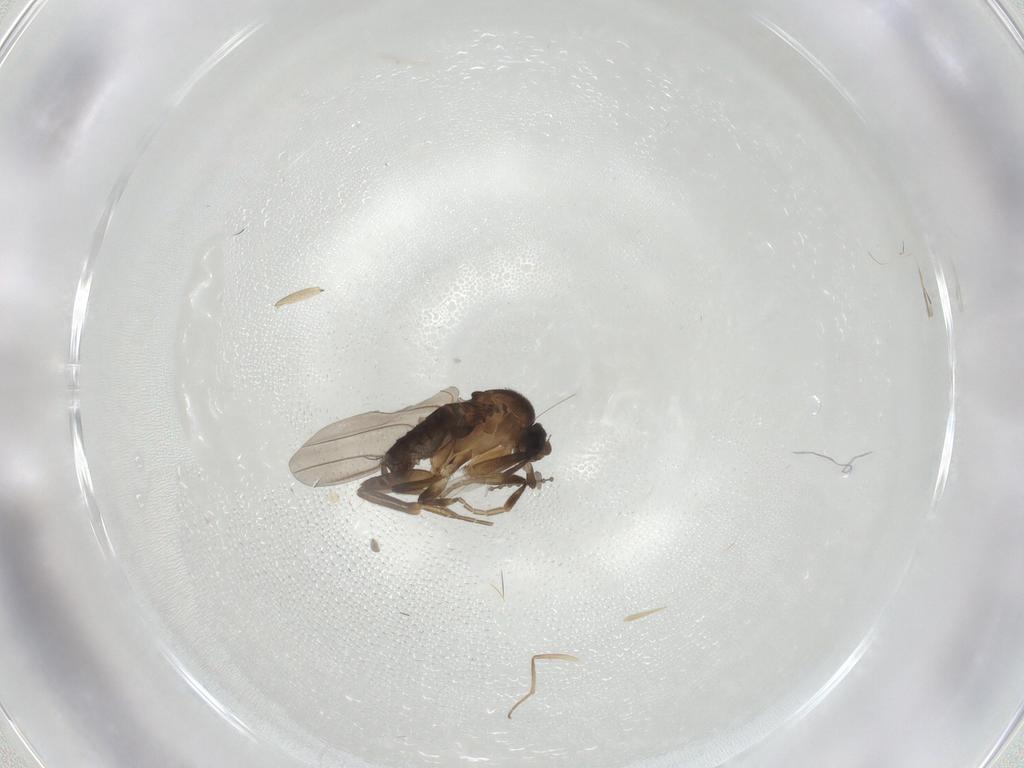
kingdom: Animalia
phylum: Arthropoda
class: Insecta
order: Diptera
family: Sciaridae
